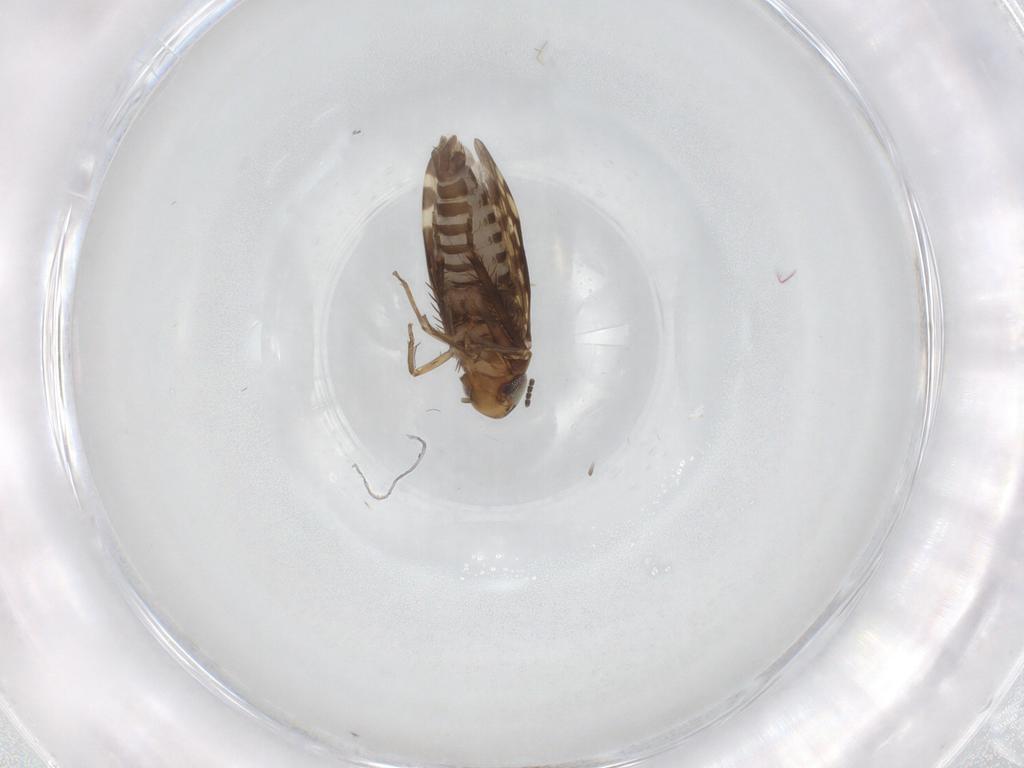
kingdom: Animalia
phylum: Arthropoda
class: Insecta
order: Hemiptera
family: Cicadellidae
